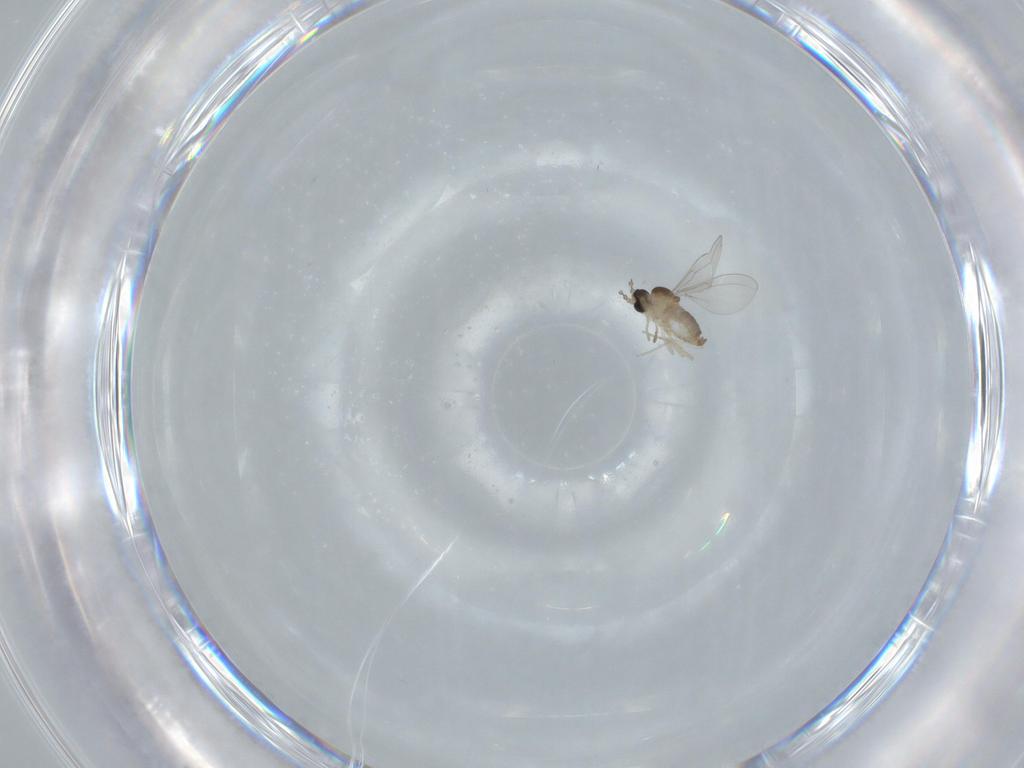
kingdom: Animalia
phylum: Arthropoda
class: Insecta
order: Diptera
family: Cecidomyiidae
